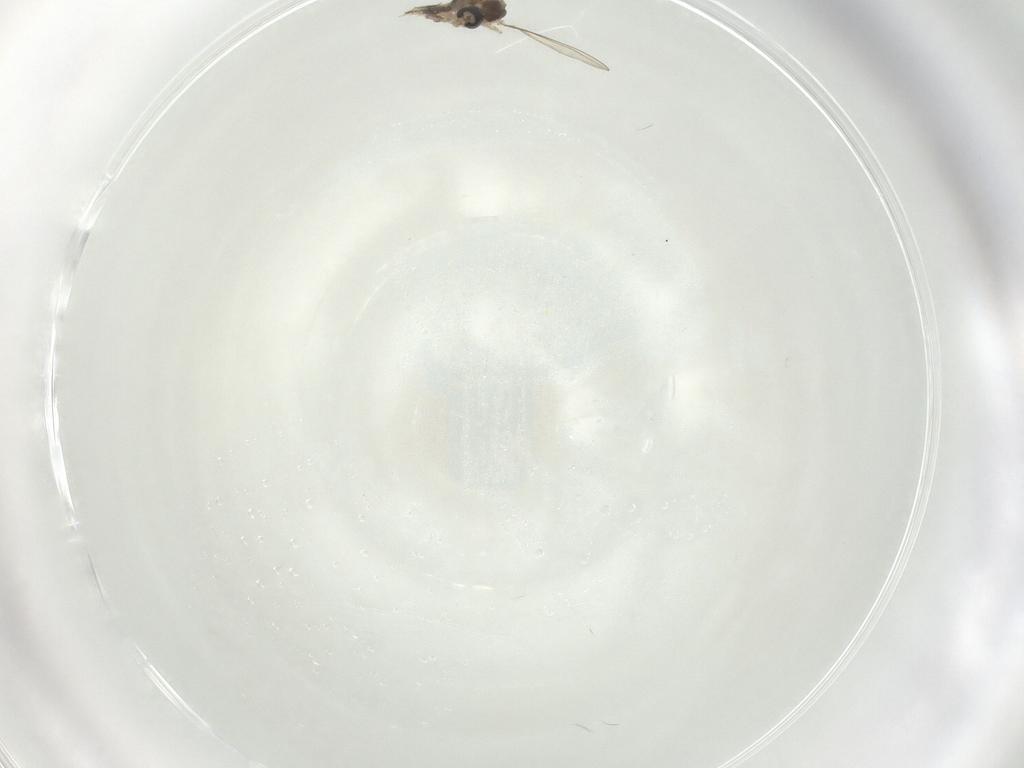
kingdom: Animalia
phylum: Arthropoda
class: Insecta
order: Diptera
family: Cecidomyiidae
